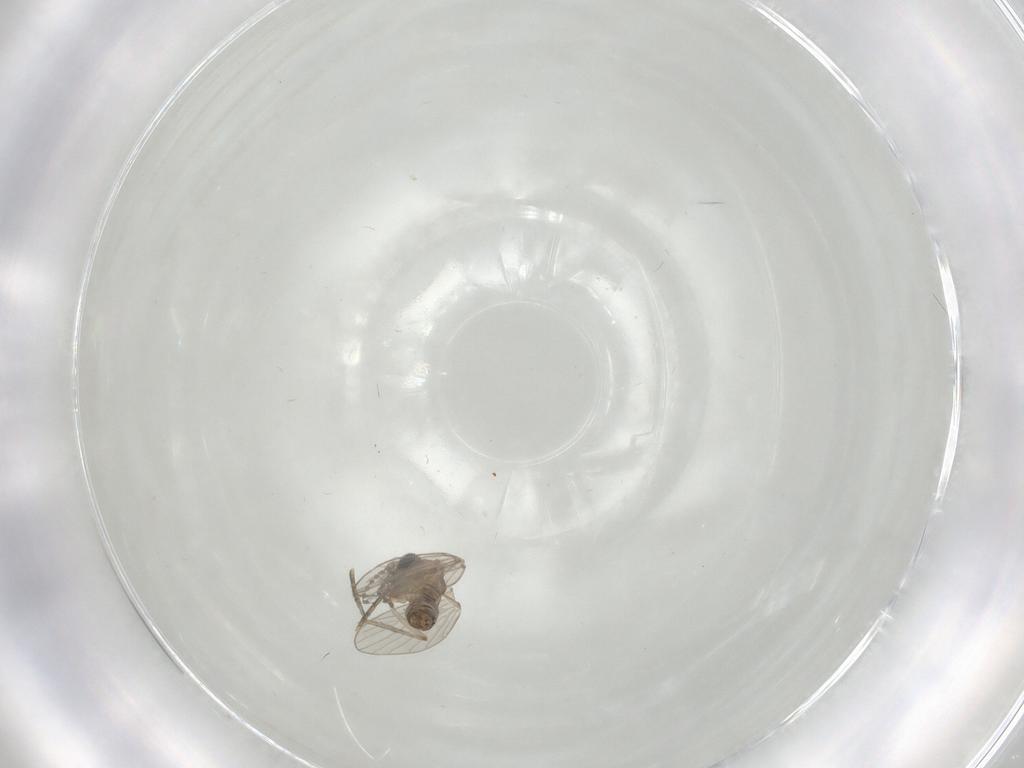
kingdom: Animalia
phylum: Arthropoda
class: Insecta
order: Diptera
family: Psychodidae
